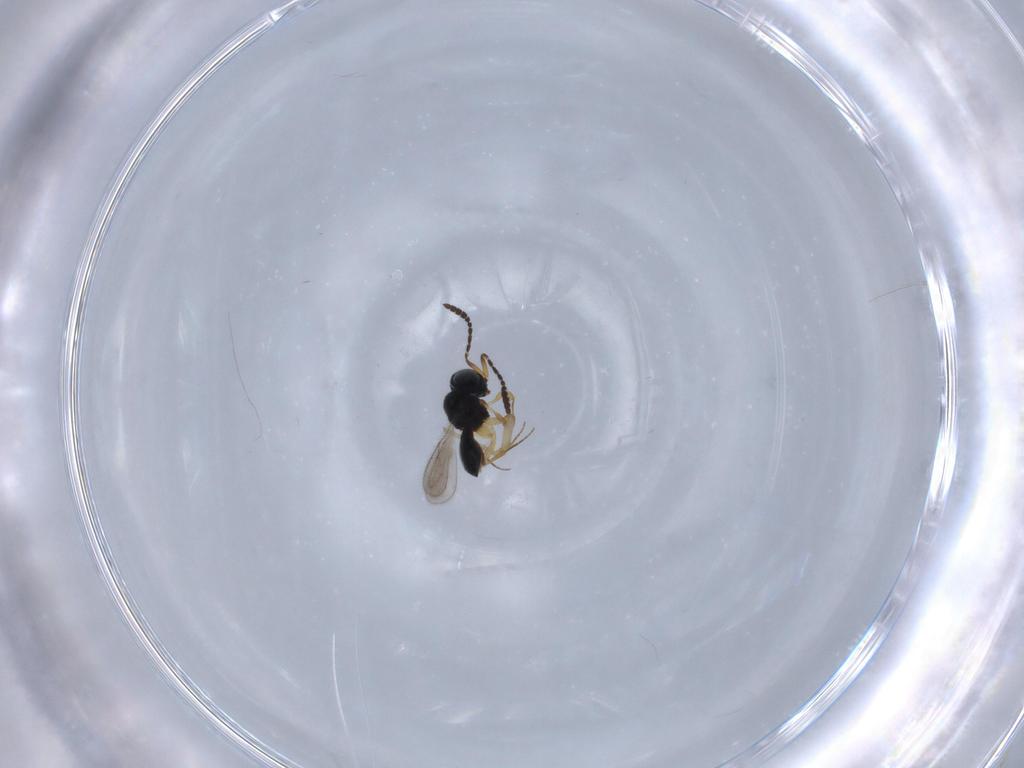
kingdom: Animalia
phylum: Arthropoda
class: Insecta
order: Hymenoptera
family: Scelionidae
